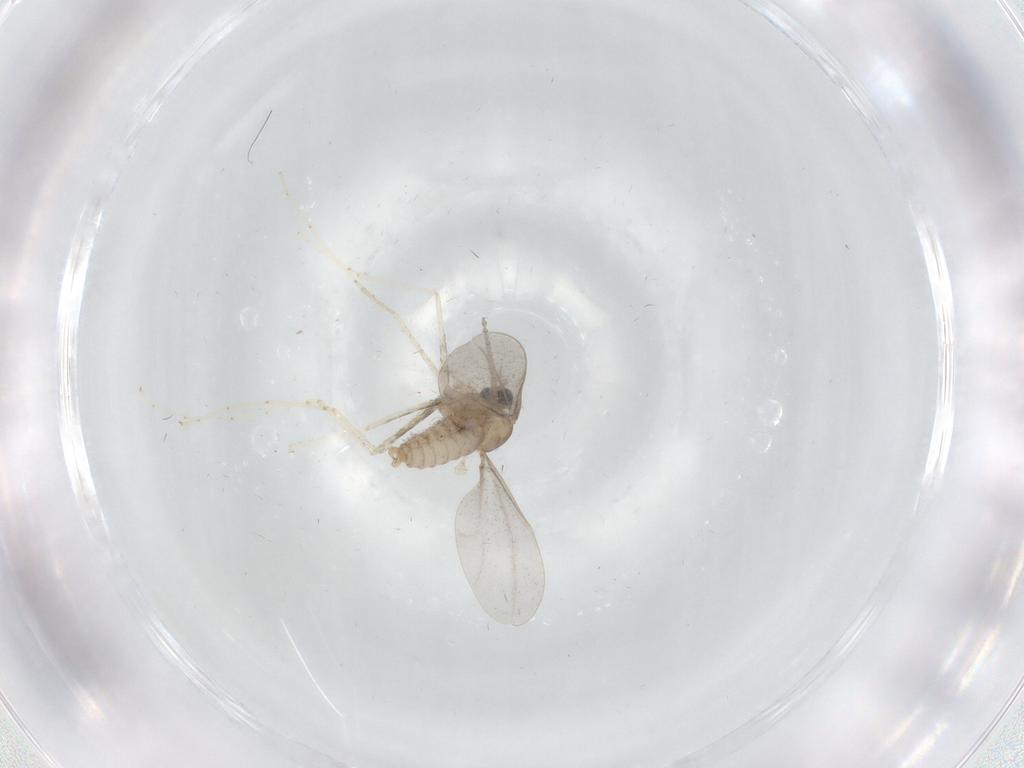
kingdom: Animalia
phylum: Arthropoda
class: Insecta
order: Diptera
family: Cecidomyiidae
